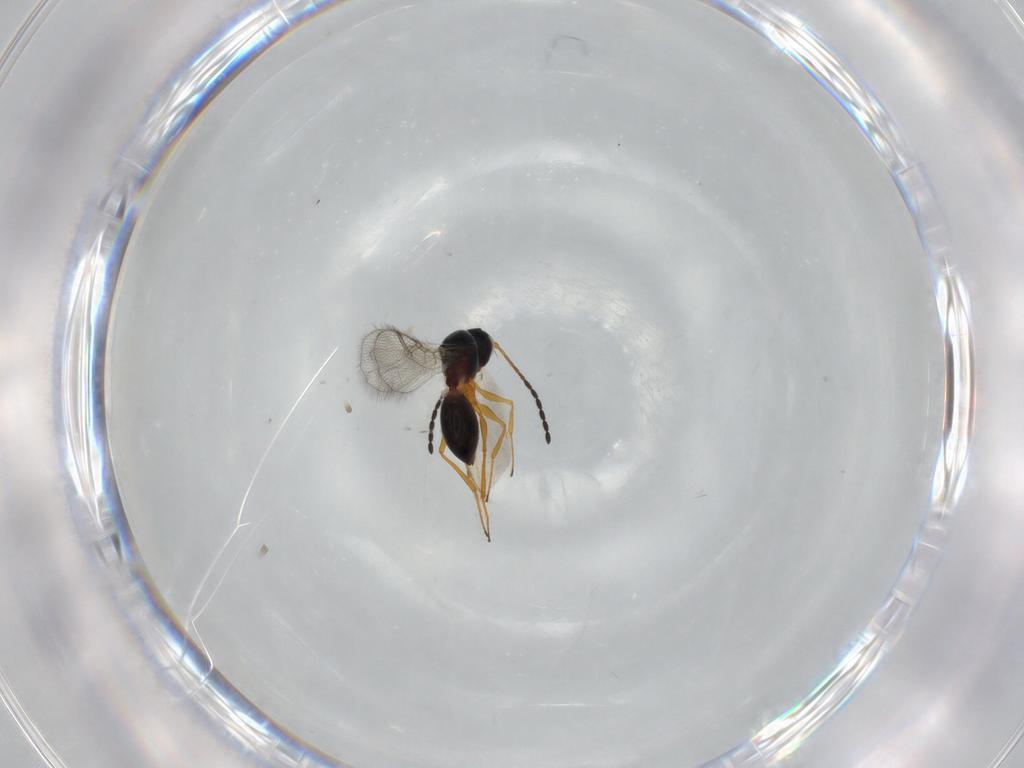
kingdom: Animalia
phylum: Arthropoda
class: Insecta
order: Hymenoptera
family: Figitidae
